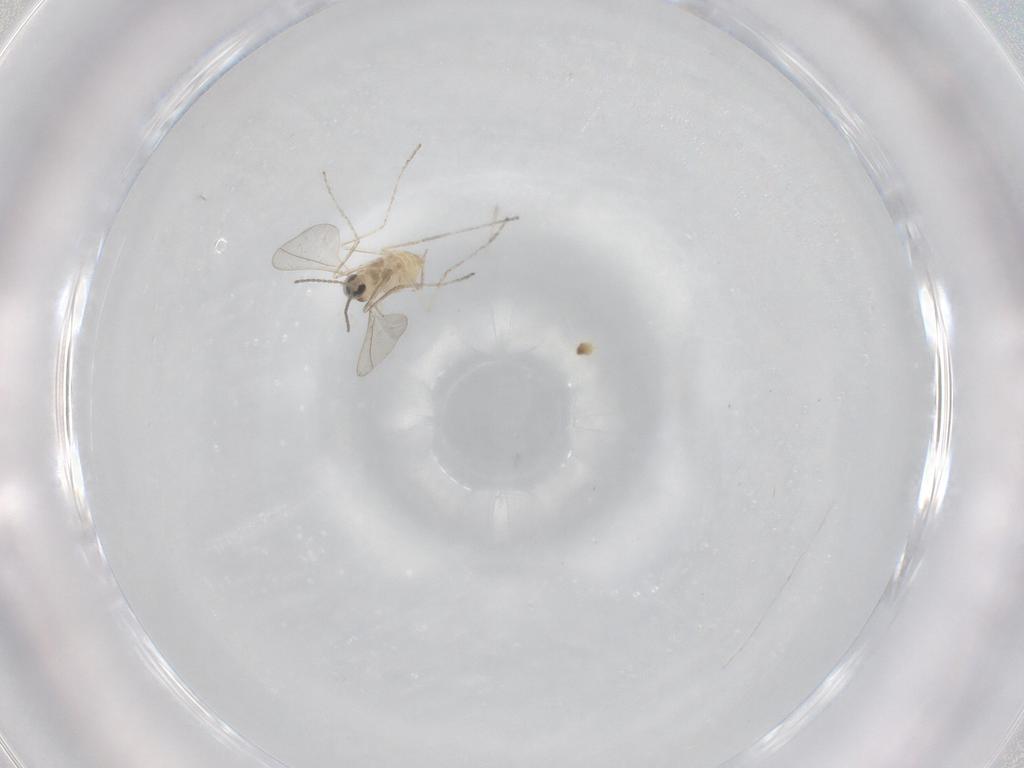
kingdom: Animalia
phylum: Arthropoda
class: Insecta
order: Diptera
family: Cecidomyiidae
